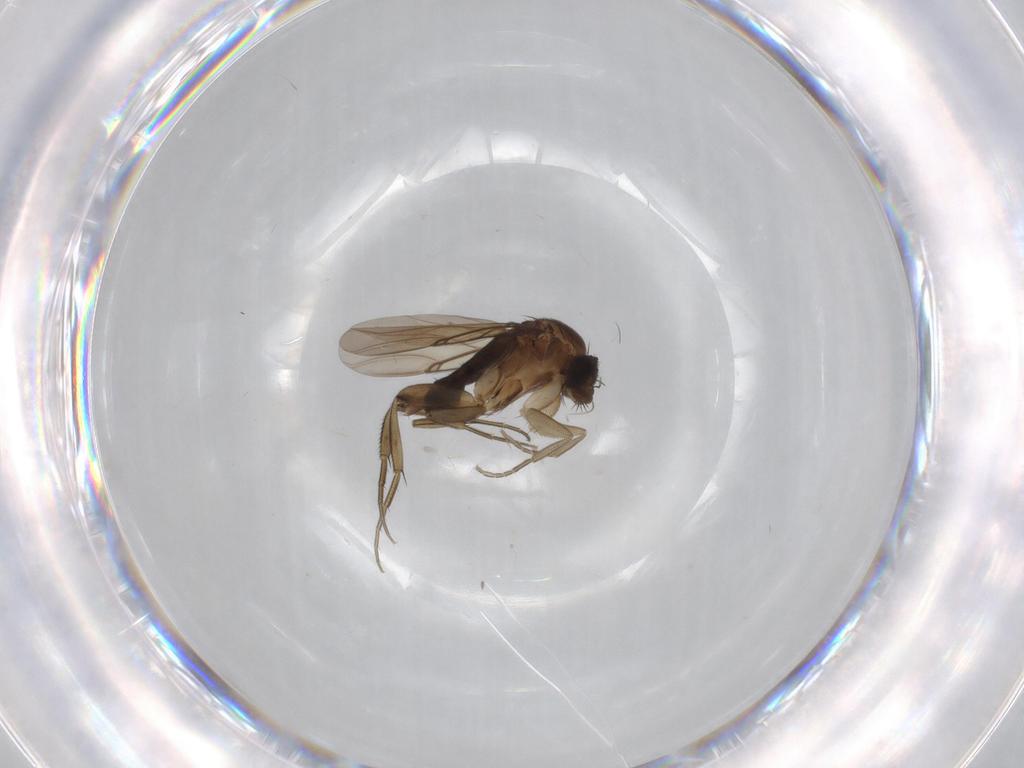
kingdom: Animalia
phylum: Arthropoda
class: Insecta
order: Diptera
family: Phoridae
